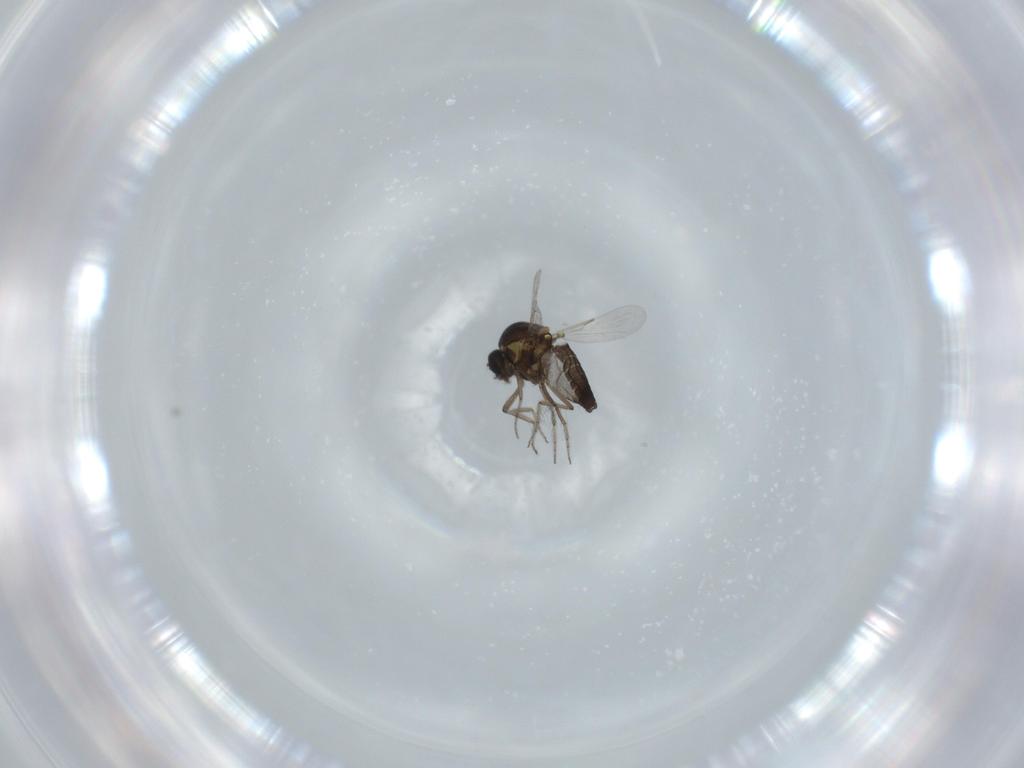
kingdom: Animalia
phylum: Arthropoda
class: Insecta
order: Diptera
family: Ceratopogonidae
